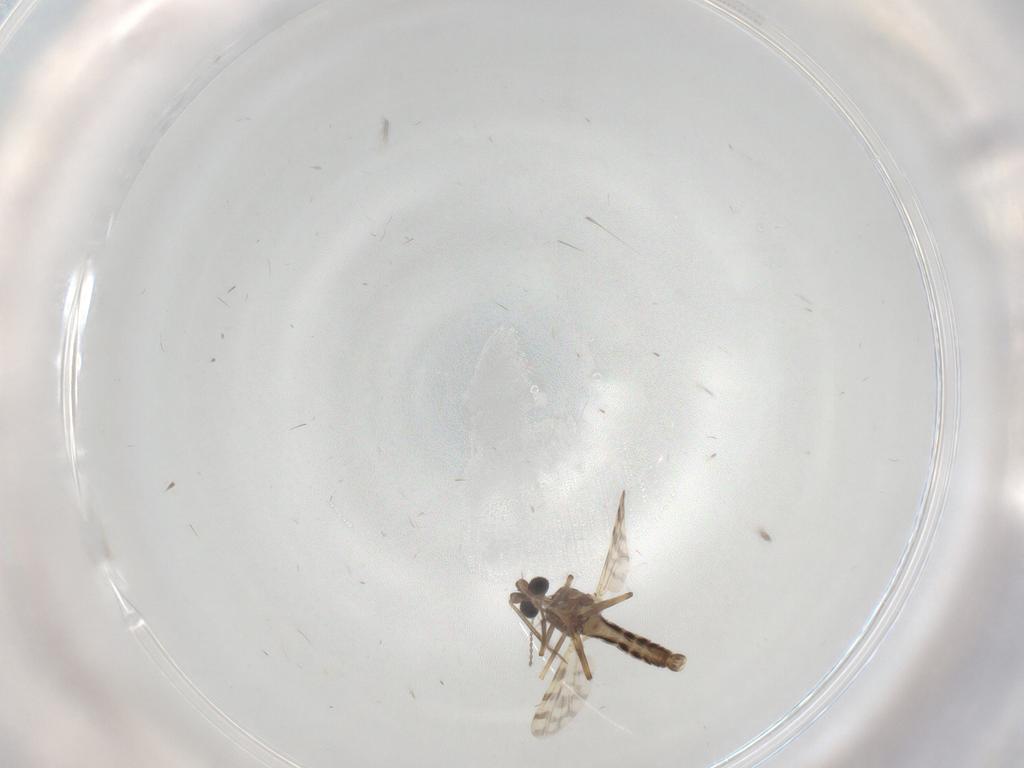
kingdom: Animalia
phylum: Arthropoda
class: Insecta
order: Diptera
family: Ceratopogonidae
